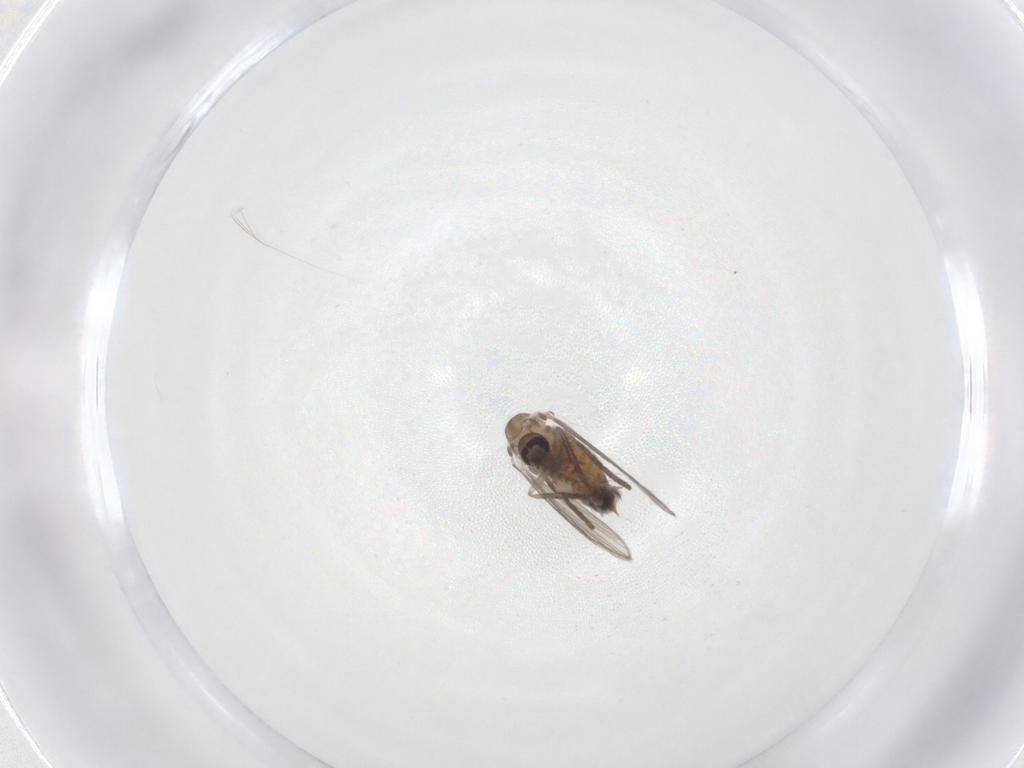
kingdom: Animalia
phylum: Arthropoda
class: Insecta
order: Diptera
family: Psychodidae
